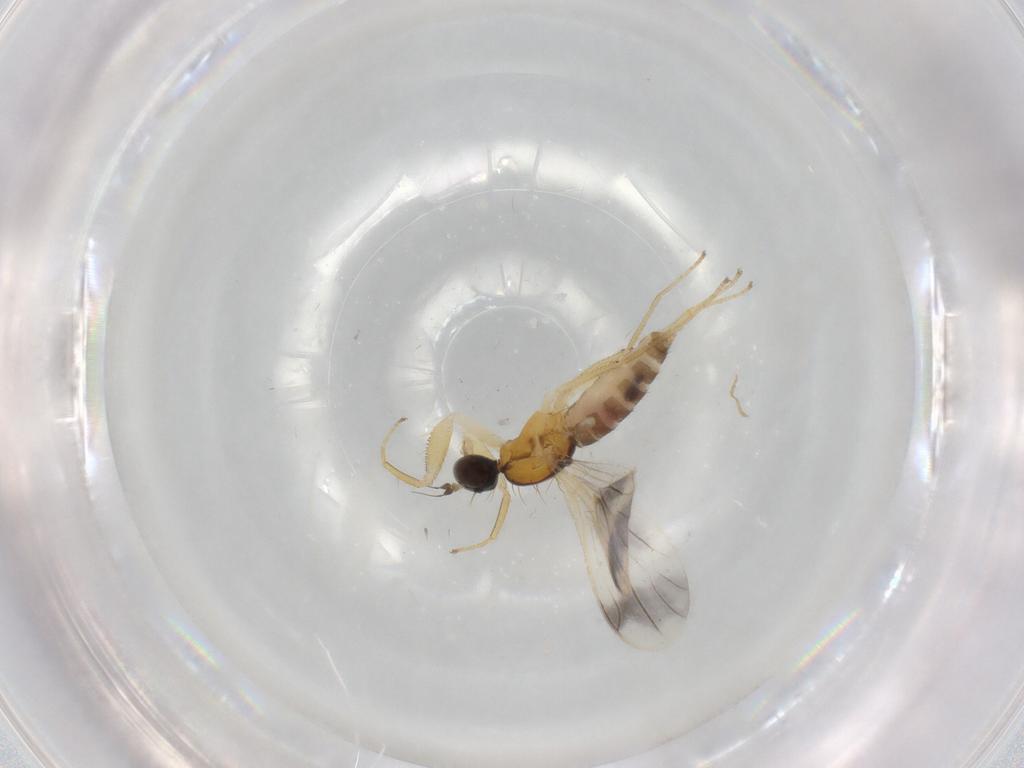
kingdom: Animalia
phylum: Arthropoda
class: Insecta
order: Diptera
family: Empididae
